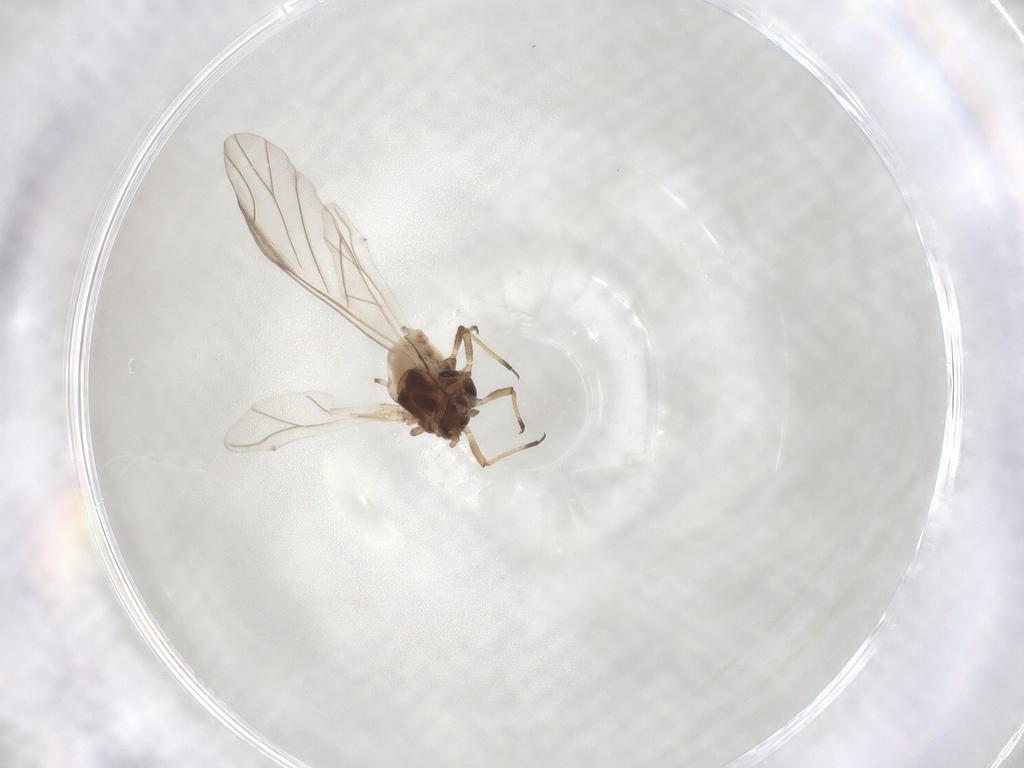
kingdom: Animalia
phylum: Arthropoda
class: Insecta
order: Hemiptera
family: Aphididae
